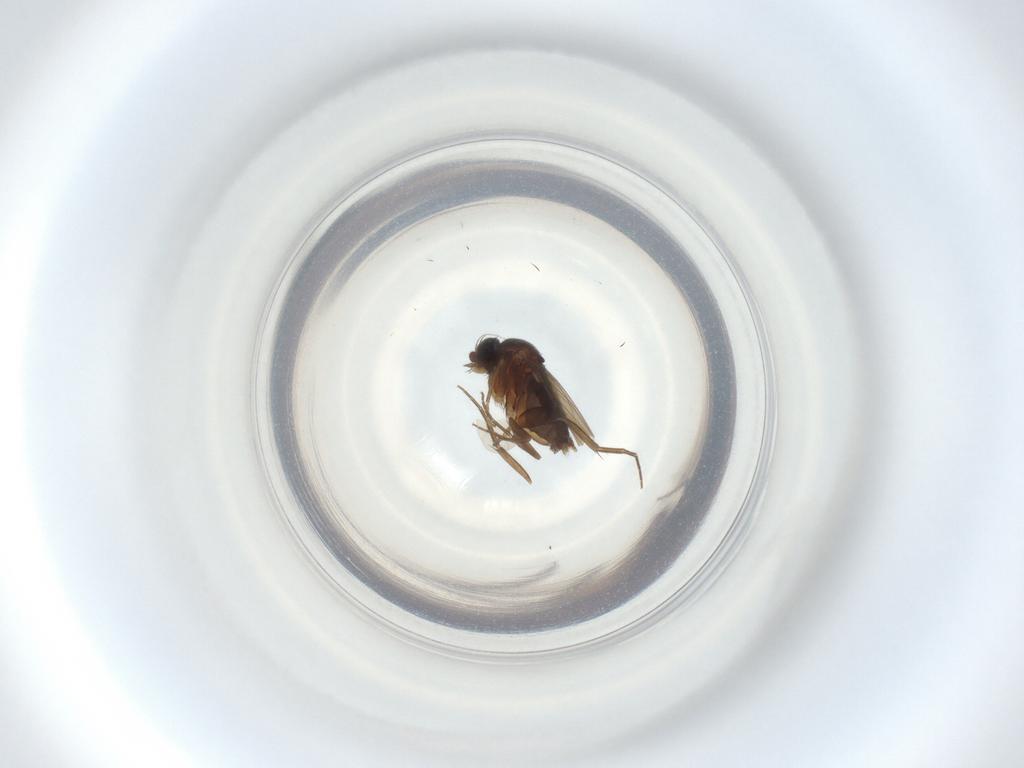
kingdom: Animalia
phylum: Arthropoda
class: Insecta
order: Diptera
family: Phoridae
